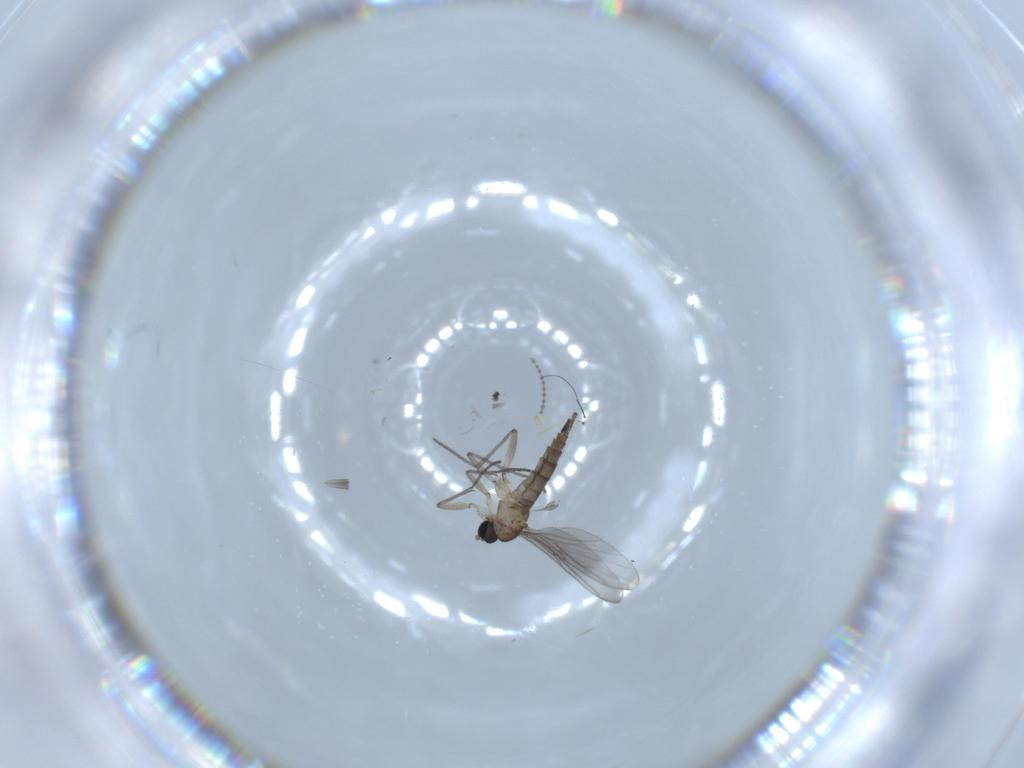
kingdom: Animalia
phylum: Arthropoda
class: Insecta
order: Diptera
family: Sciaridae
